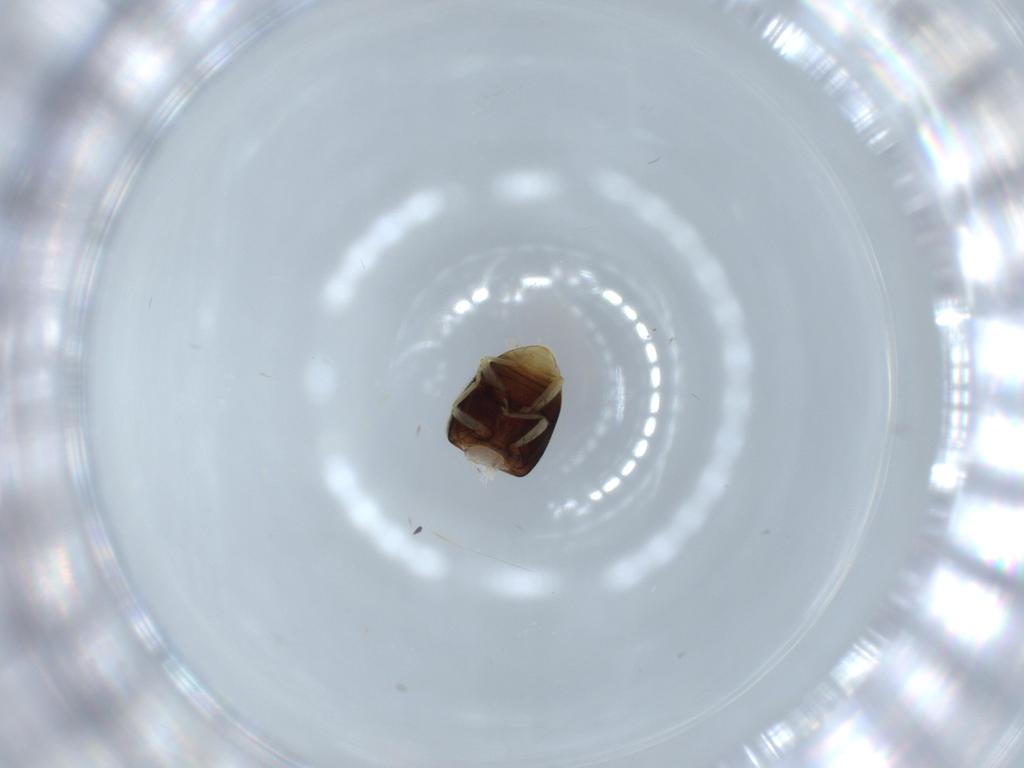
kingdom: Animalia
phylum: Arthropoda
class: Insecta
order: Coleoptera
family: Coccinellidae
